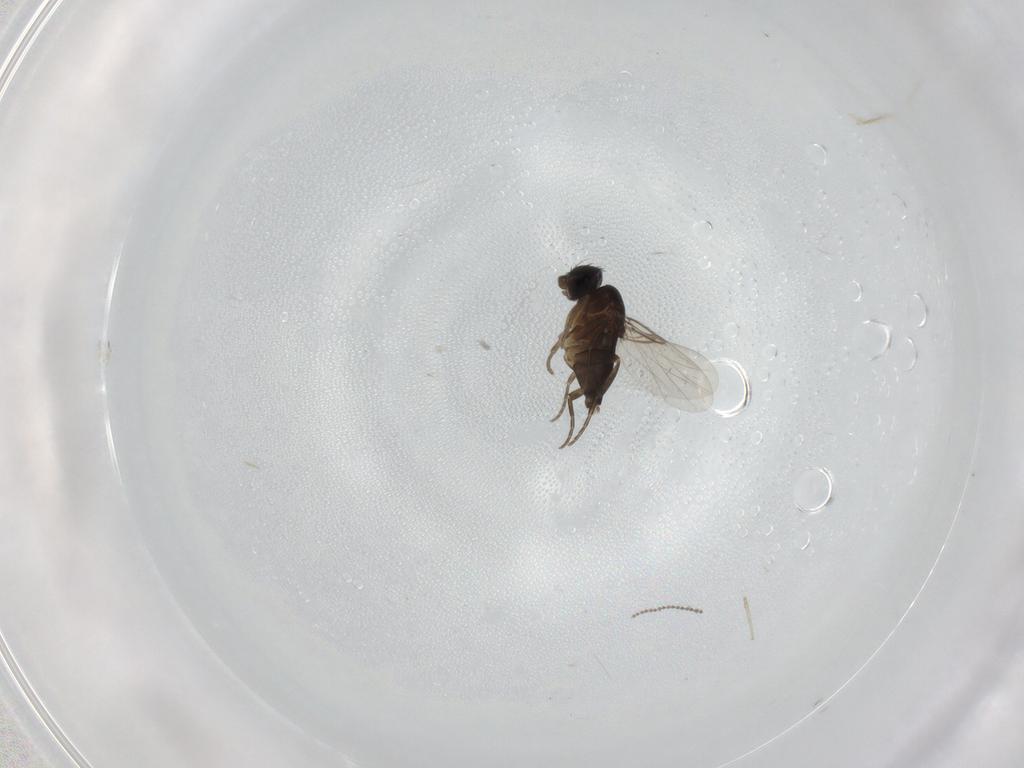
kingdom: Animalia
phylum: Arthropoda
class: Insecta
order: Diptera
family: Phoridae
